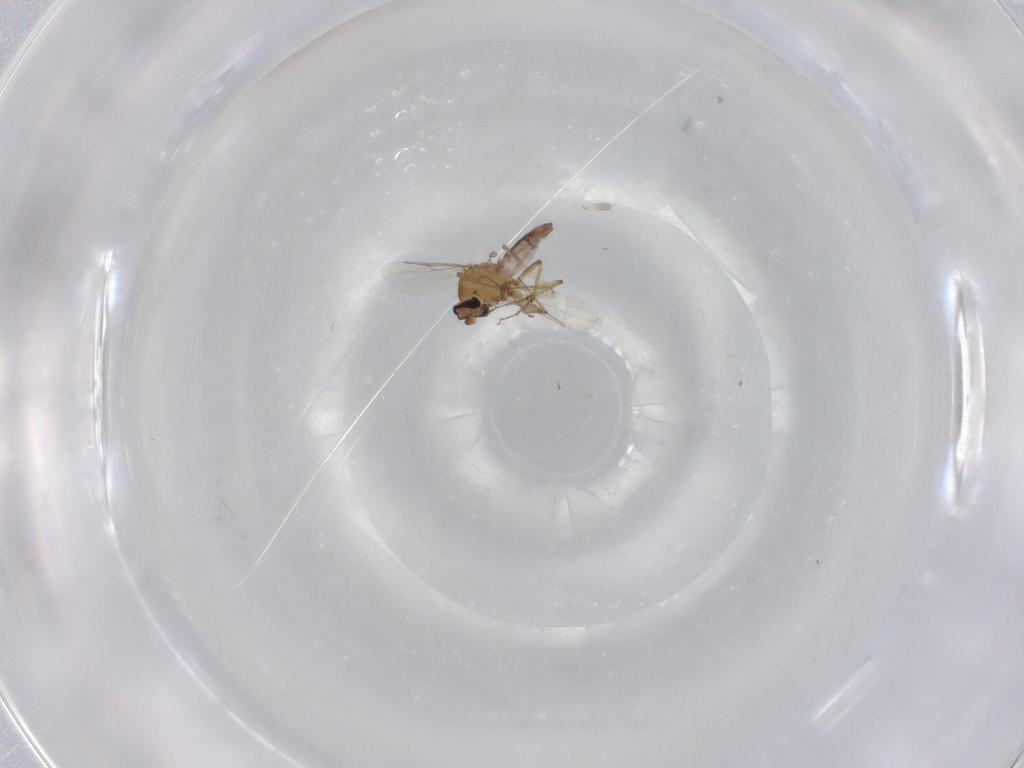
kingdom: Animalia
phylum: Arthropoda
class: Insecta
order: Diptera
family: Chironomidae
